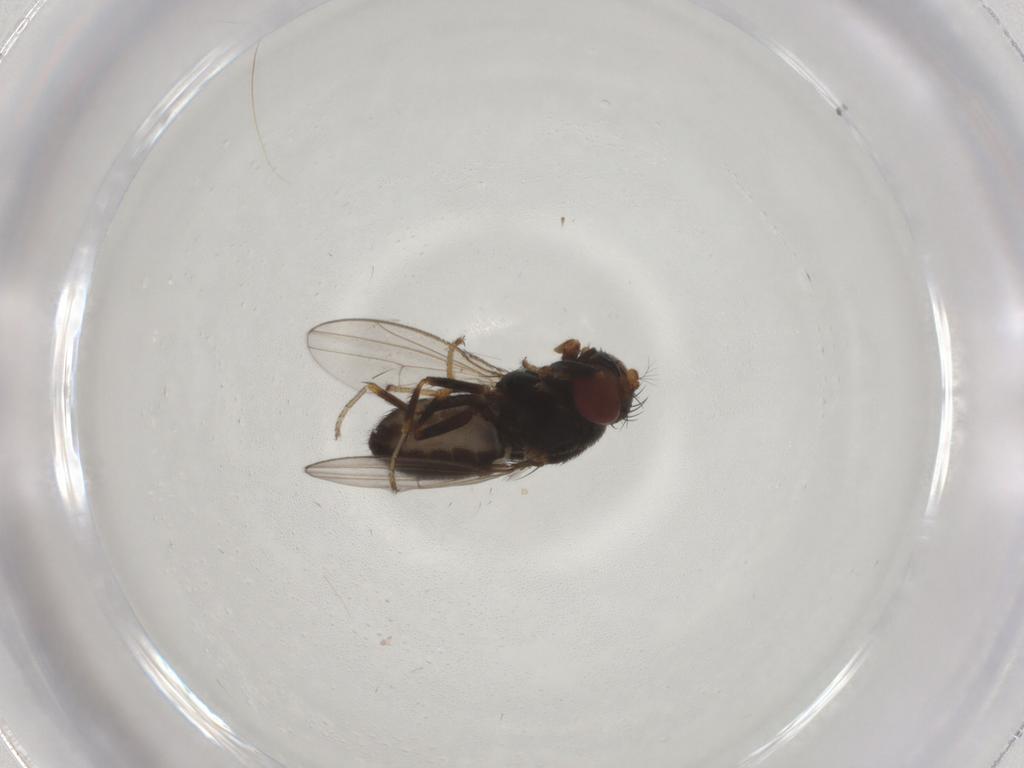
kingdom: Animalia
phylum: Arthropoda
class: Insecta
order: Diptera
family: Ephydridae
